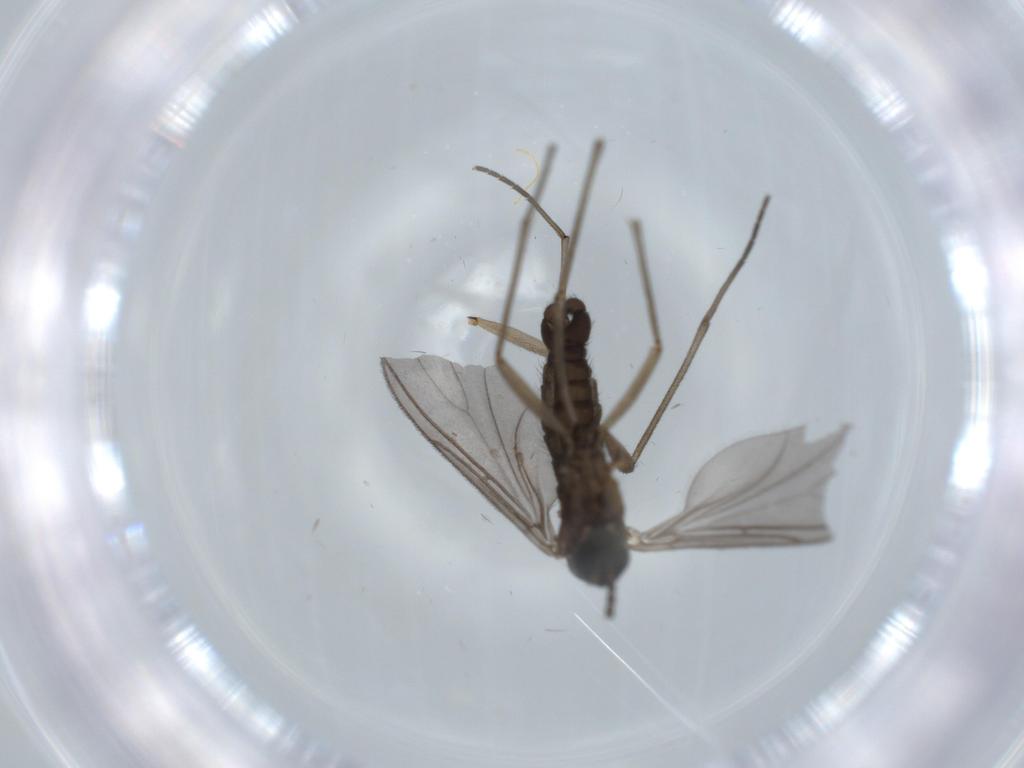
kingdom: Animalia
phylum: Arthropoda
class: Insecta
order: Diptera
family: Sciaridae
